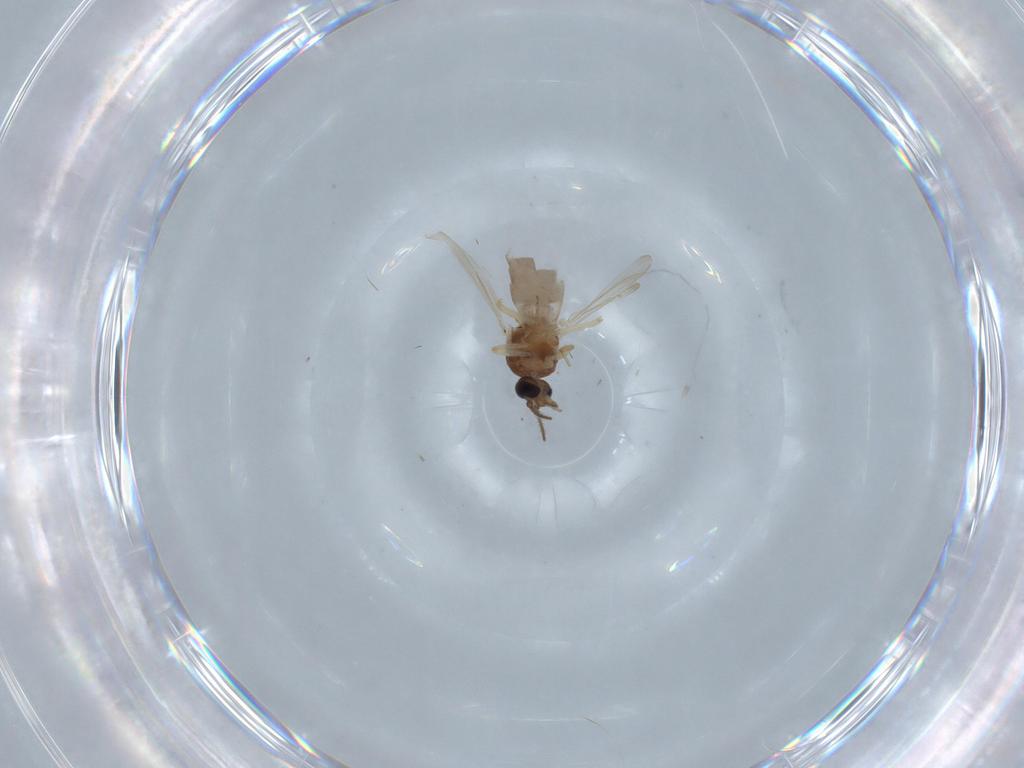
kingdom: Animalia
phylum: Arthropoda
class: Insecta
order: Diptera
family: Ceratopogonidae
